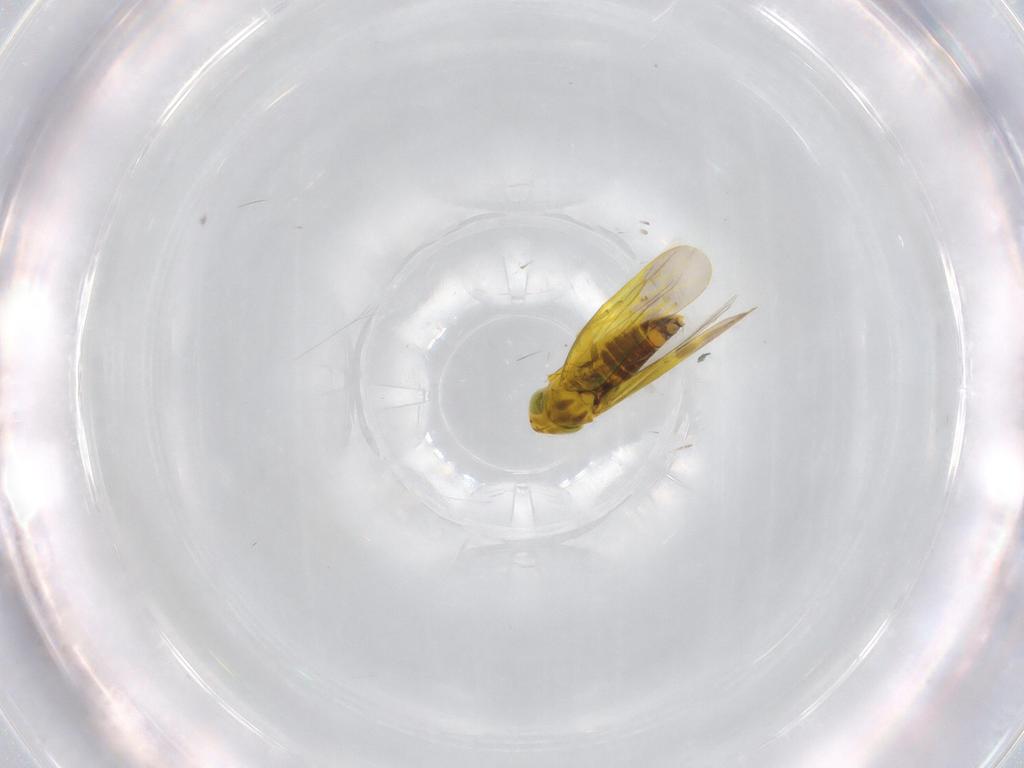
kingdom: Animalia
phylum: Arthropoda
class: Insecta
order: Hemiptera
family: Cicadellidae
